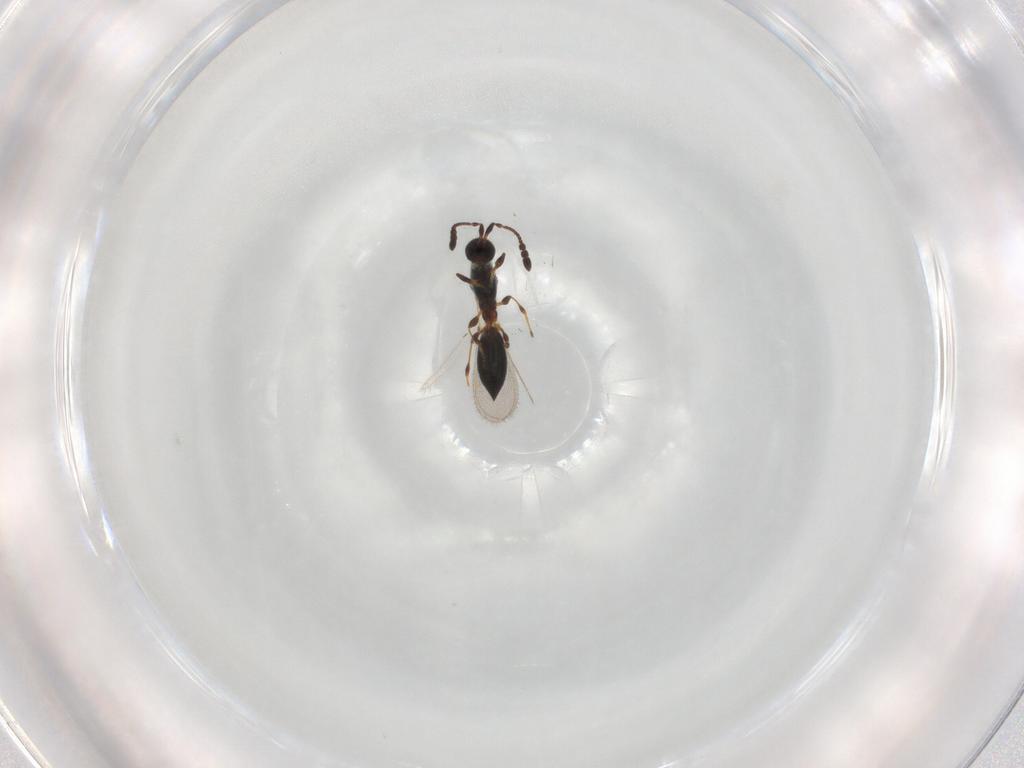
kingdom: Animalia
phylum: Arthropoda
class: Insecta
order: Hymenoptera
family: Diapriidae
